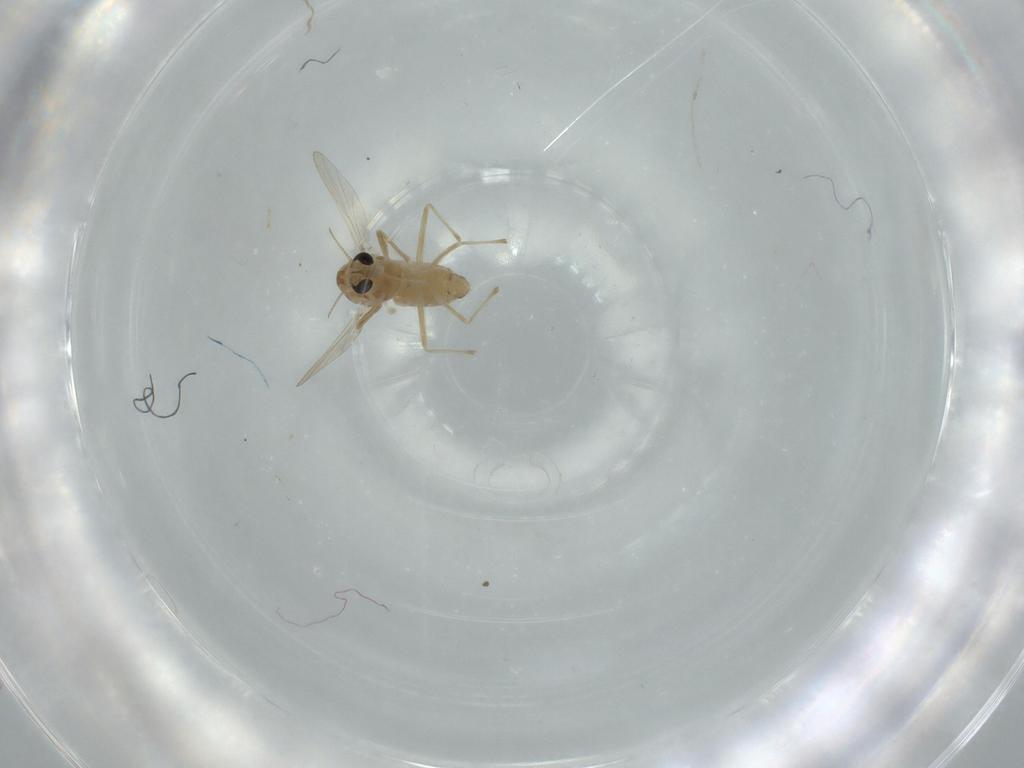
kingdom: Animalia
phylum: Arthropoda
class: Insecta
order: Diptera
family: Chironomidae
